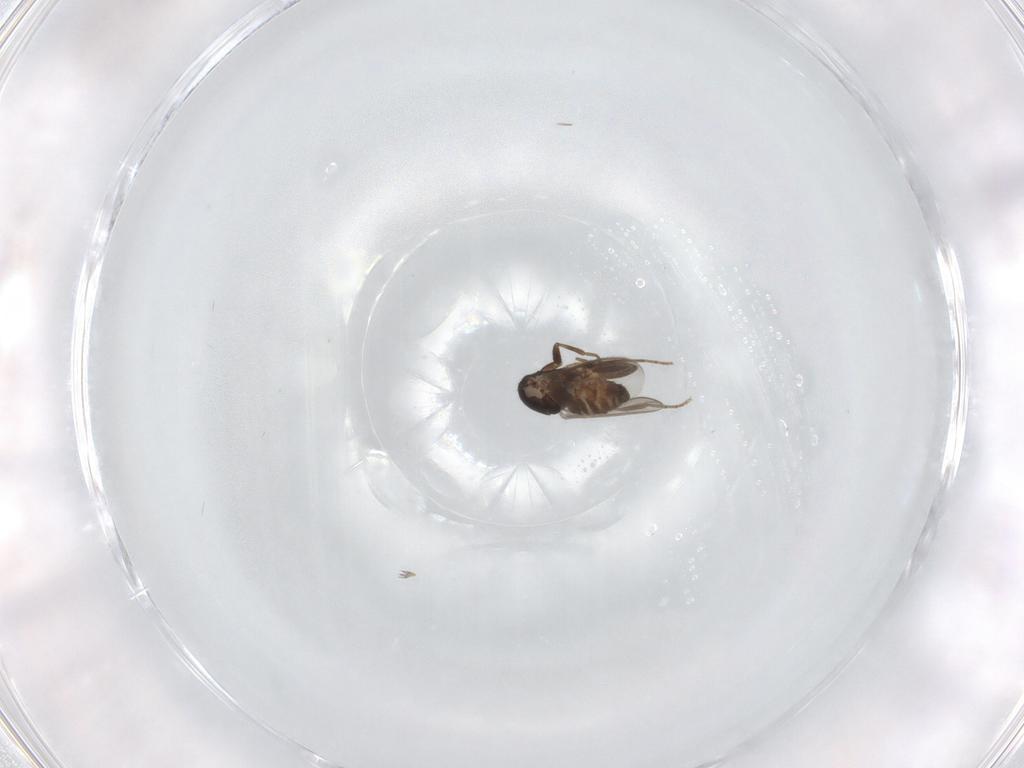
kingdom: Animalia
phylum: Arthropoda
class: Insecta
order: Diptera
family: Sphaeroceridae
